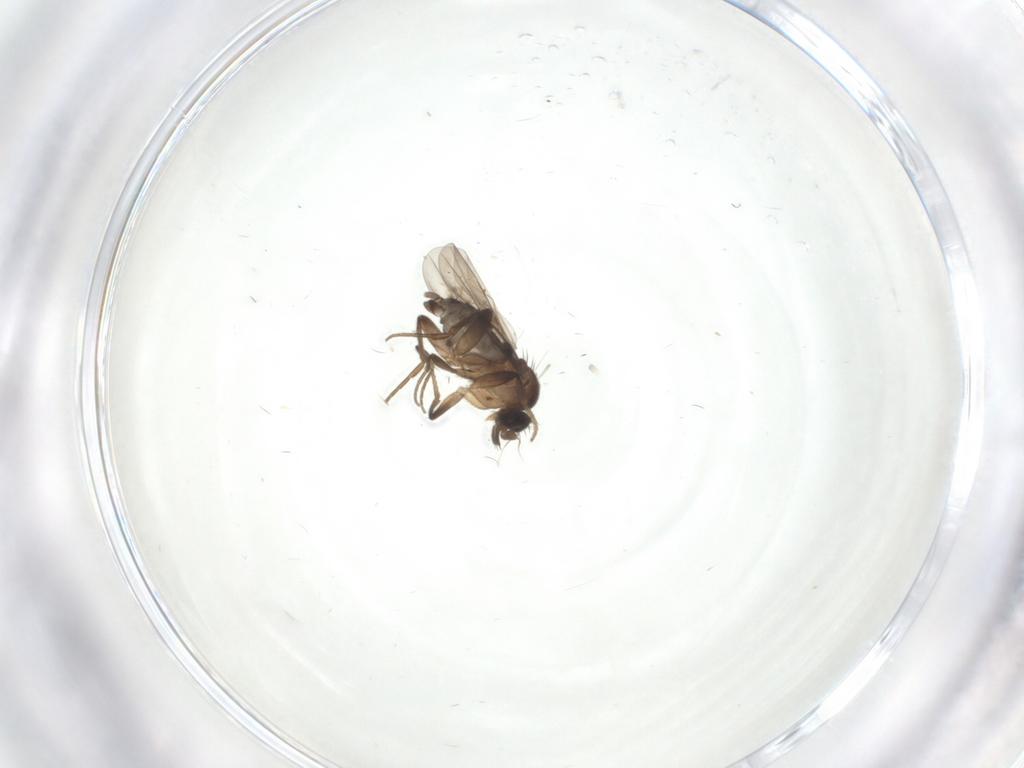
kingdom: Animalia
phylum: Arthropoda
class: Insecta
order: Diptera
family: Phoridae
